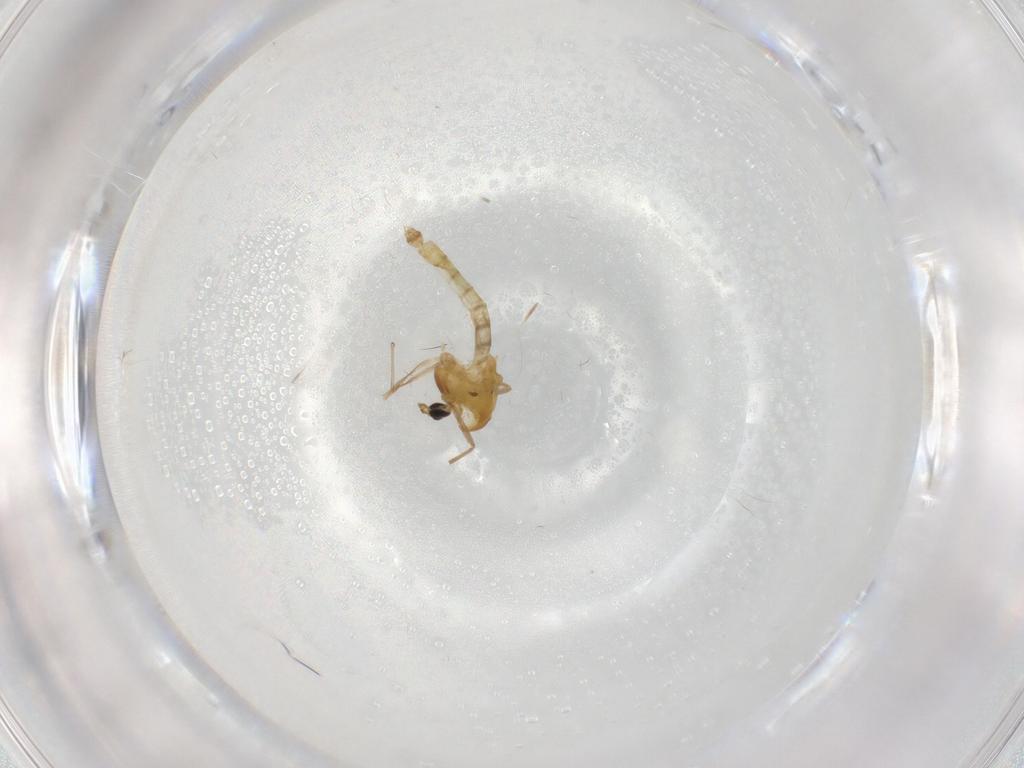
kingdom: Animalia
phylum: Arthropoda
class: Insecta
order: Diptera
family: Chironomidae
